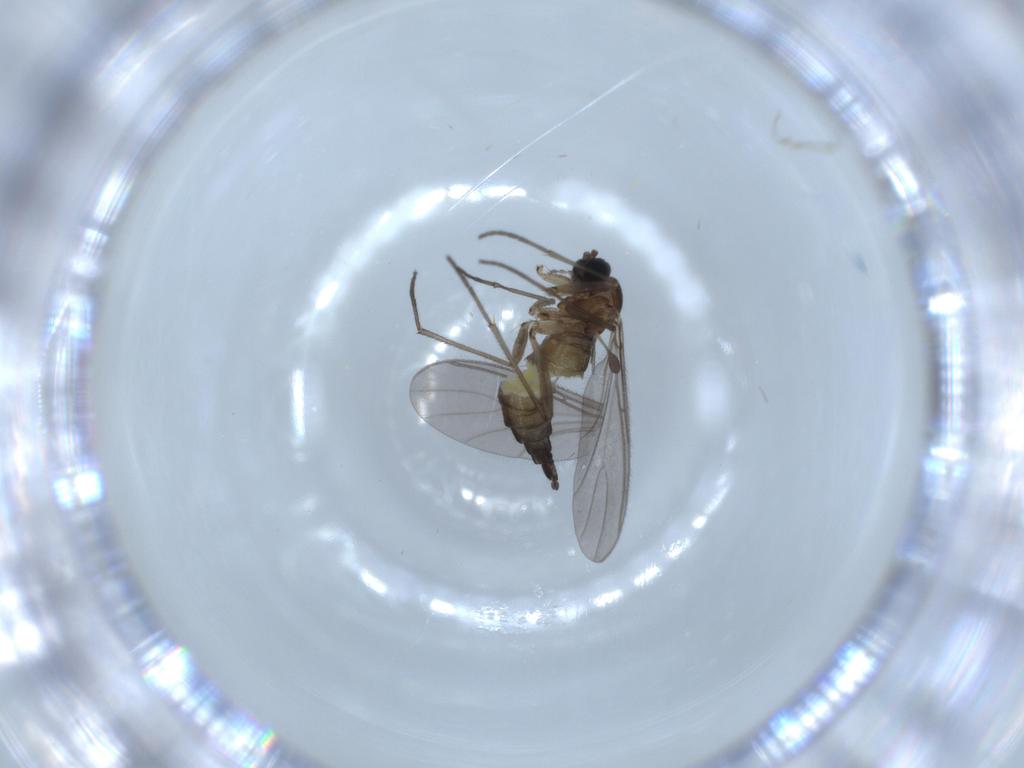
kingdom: Animalia
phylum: Arthropoda
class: Insecta
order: Diptera
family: Sciaridae
